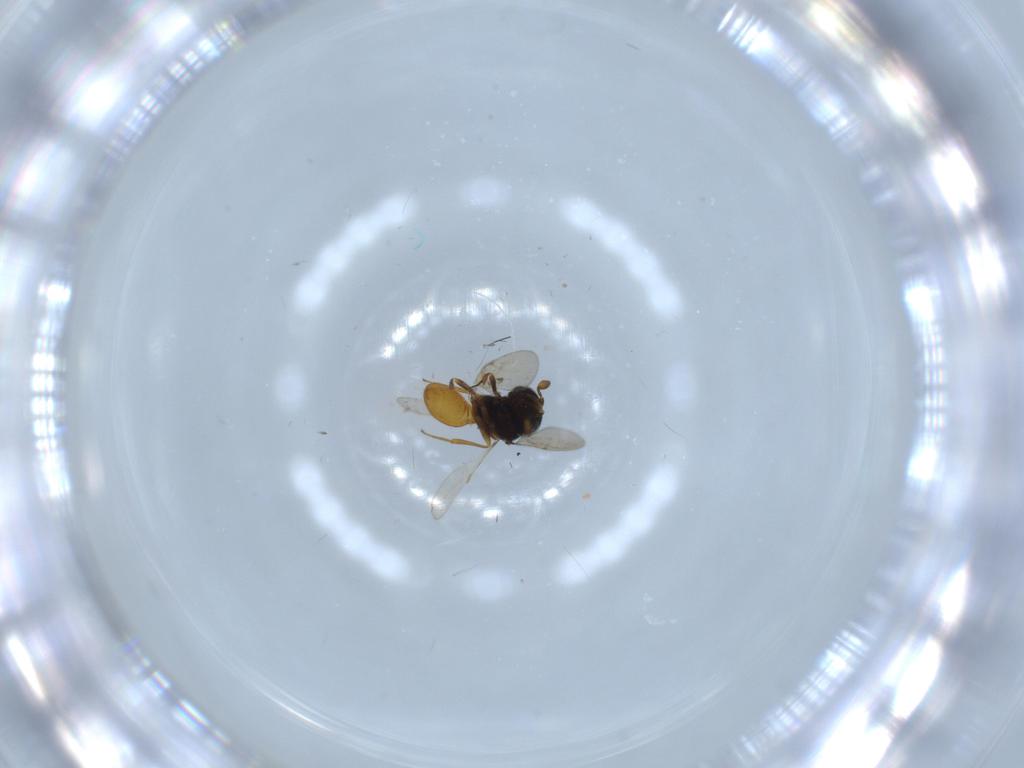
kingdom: Animalia
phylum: Arthropoda
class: Insecta
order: Hymenoptera
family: Scelionidae
